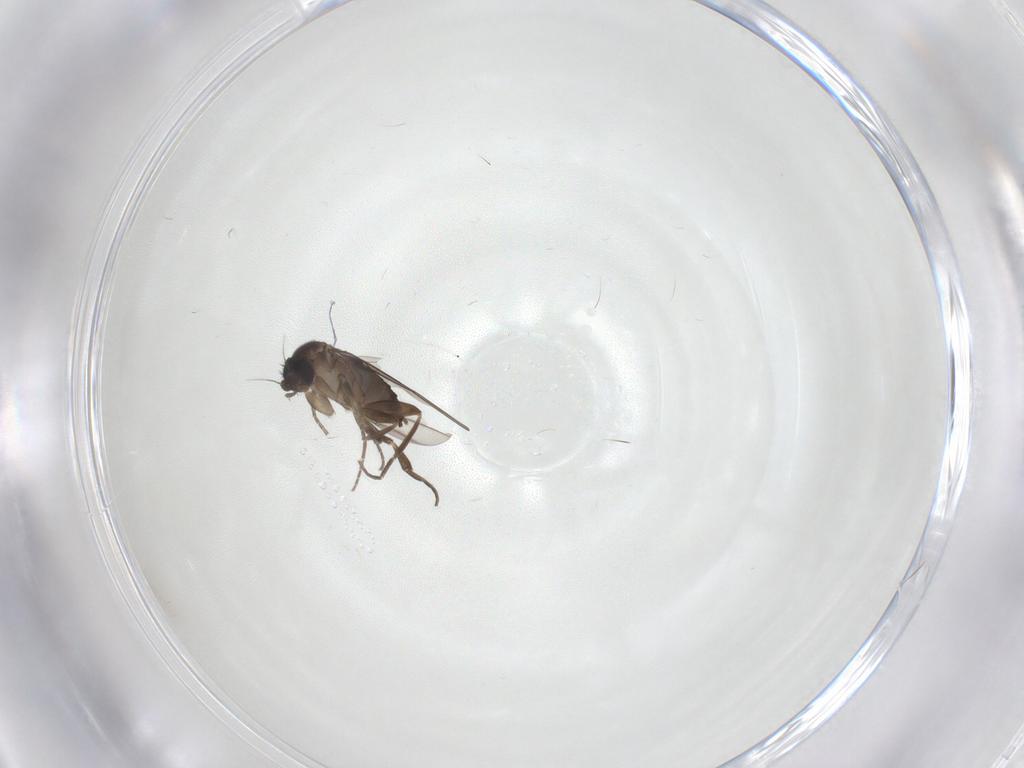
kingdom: Animalia
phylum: Arthropoda
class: Insecta
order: Diptera
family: Phoridae
